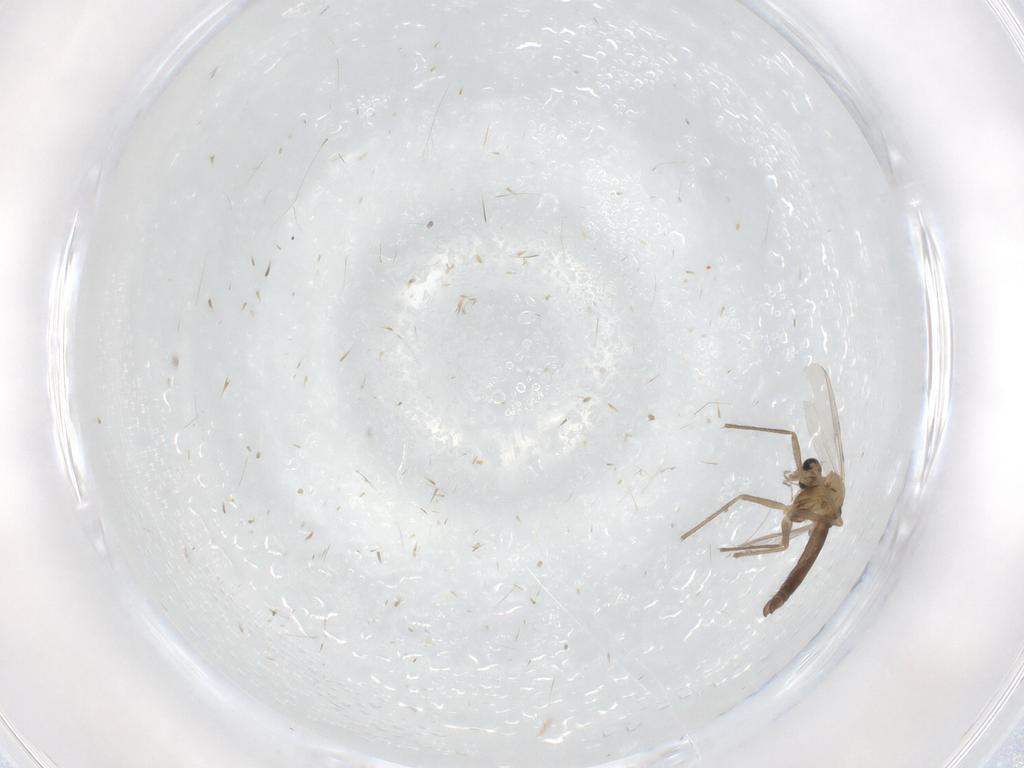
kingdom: Animalia
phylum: Arthropoda
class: Insecta
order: Diptera
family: Chironomidae
